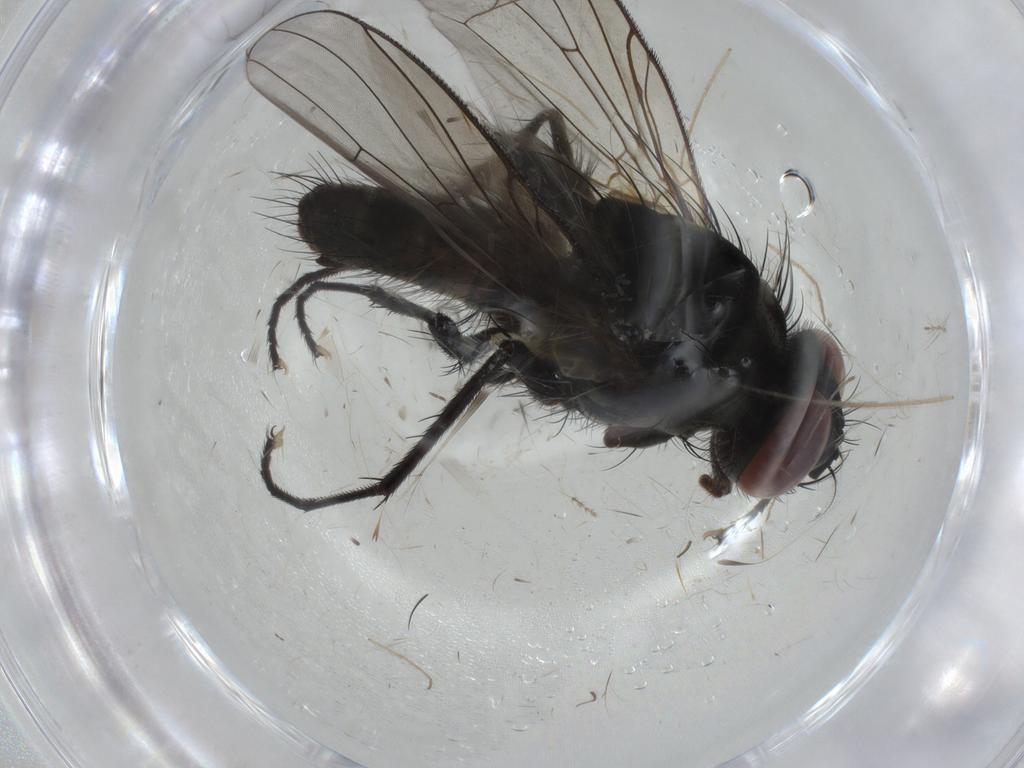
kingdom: Animalia
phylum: Arthropoda
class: Insecta
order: Diptera
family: Muscidae
